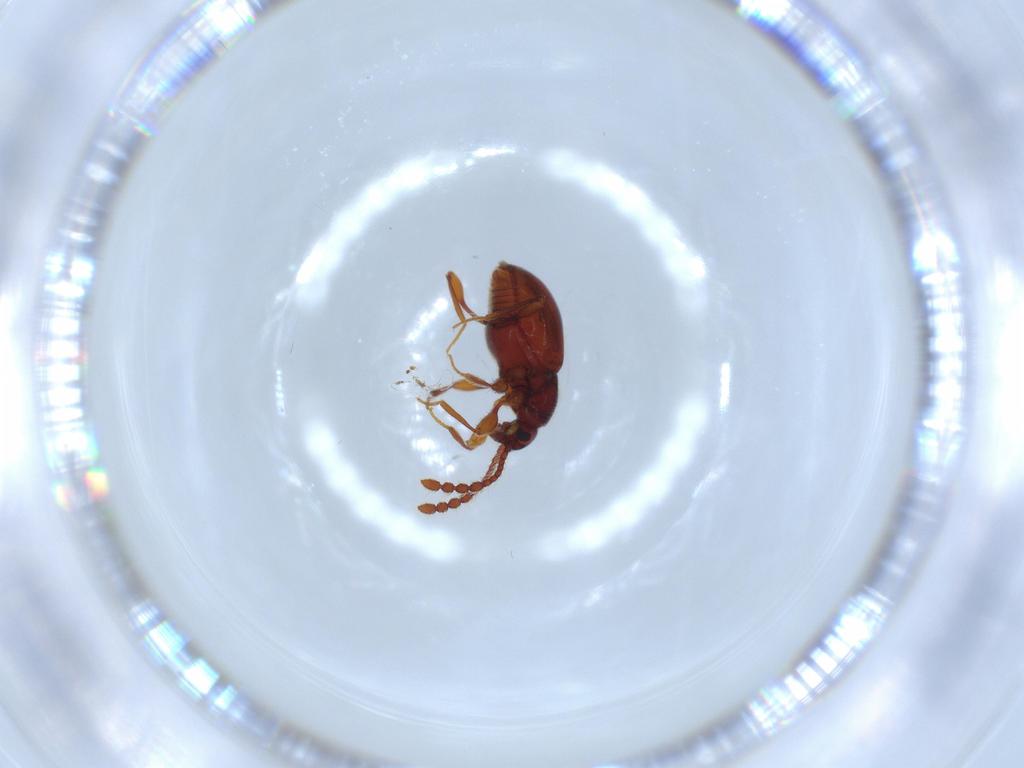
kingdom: Animalia
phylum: Arthropoda
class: Insecta
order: Coleoptera
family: Staphylinidae
